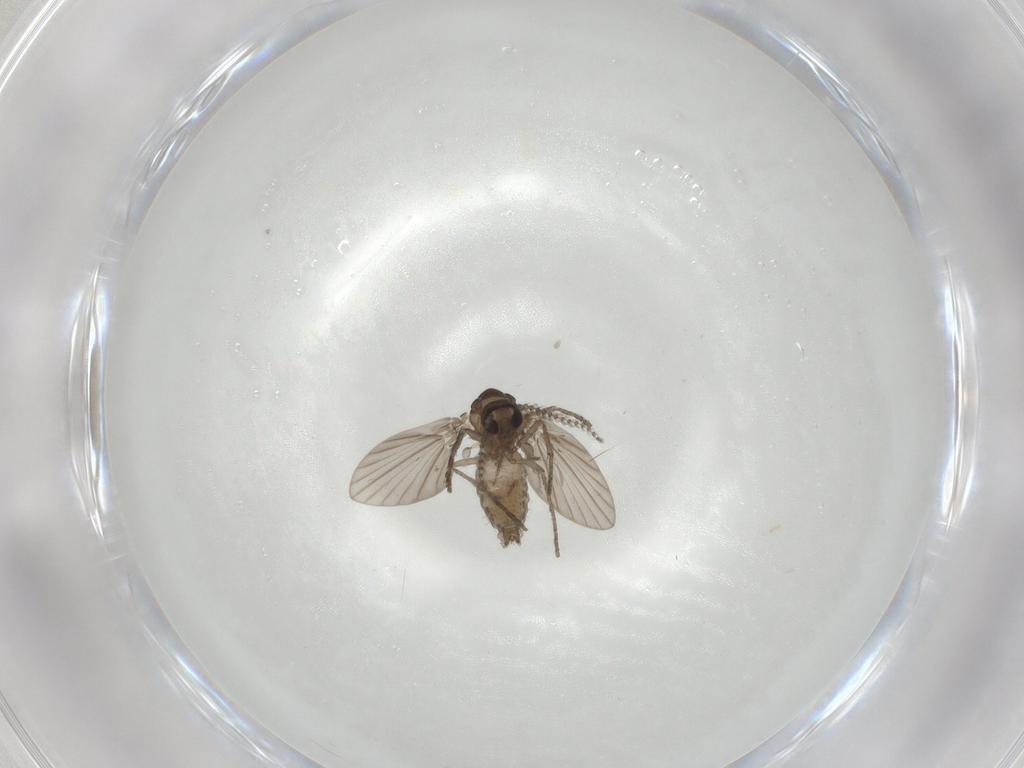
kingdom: Animalia
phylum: Arthropoda
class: Insecta
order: Diptera
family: Psychodidae
